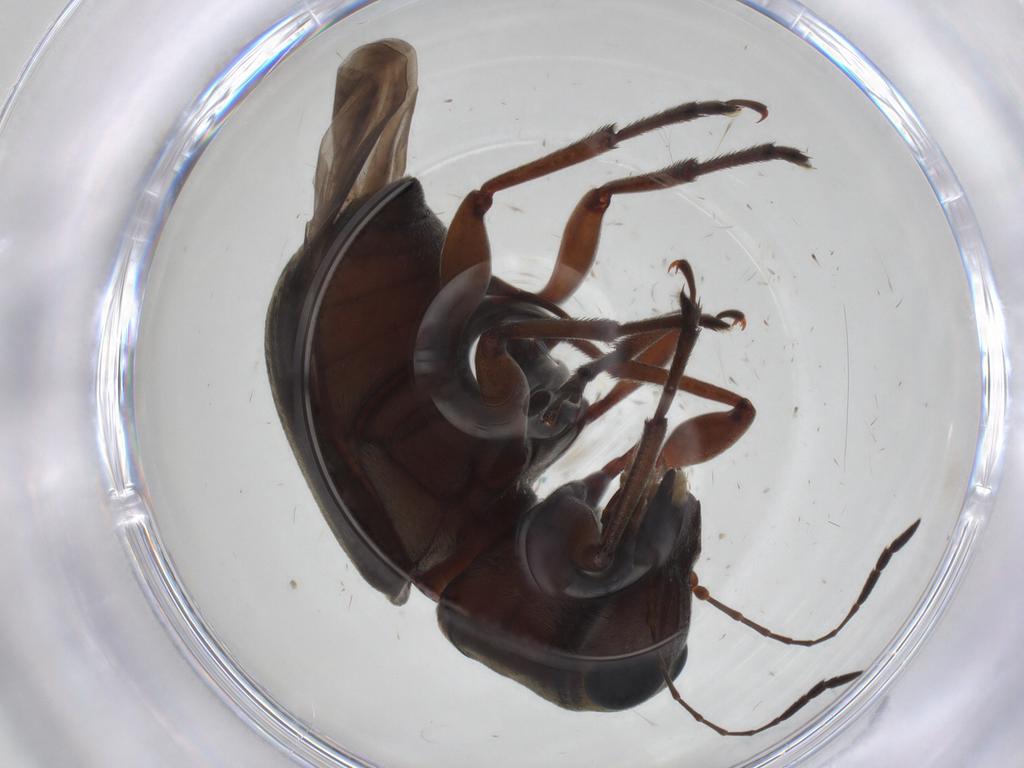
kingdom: Animalia
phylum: Arthropoda
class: Insecta
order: Coleoptera
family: Anthribidae
